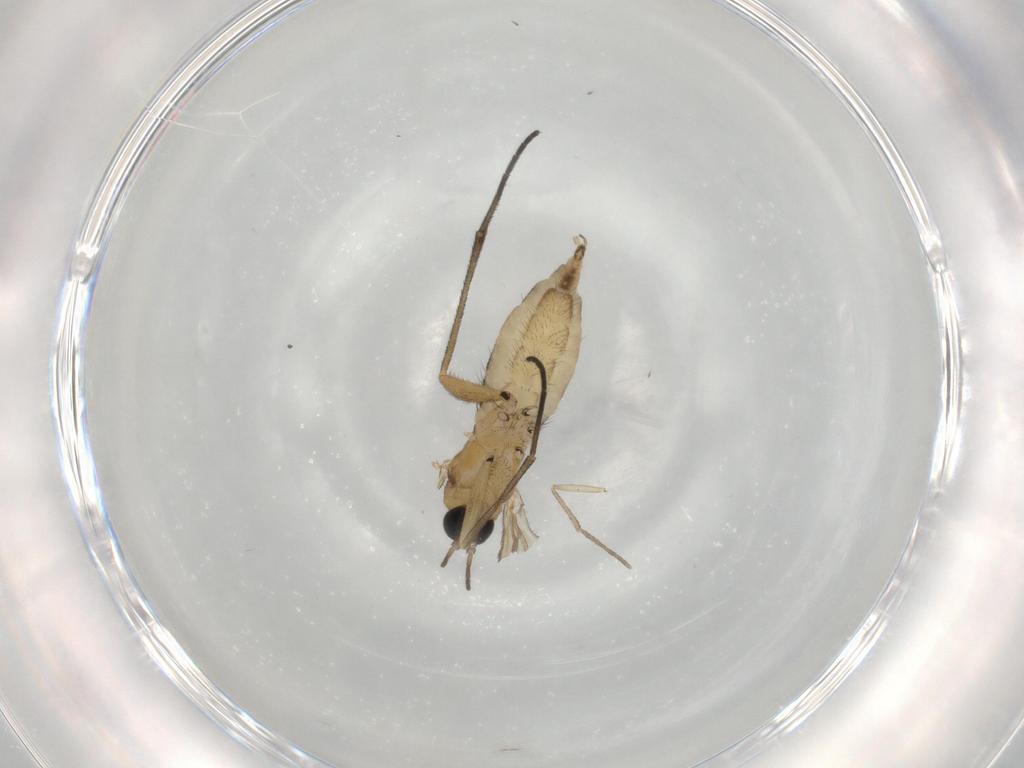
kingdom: Animalia
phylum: Arthropoda
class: Insecta
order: Diptera
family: Sciaridae
